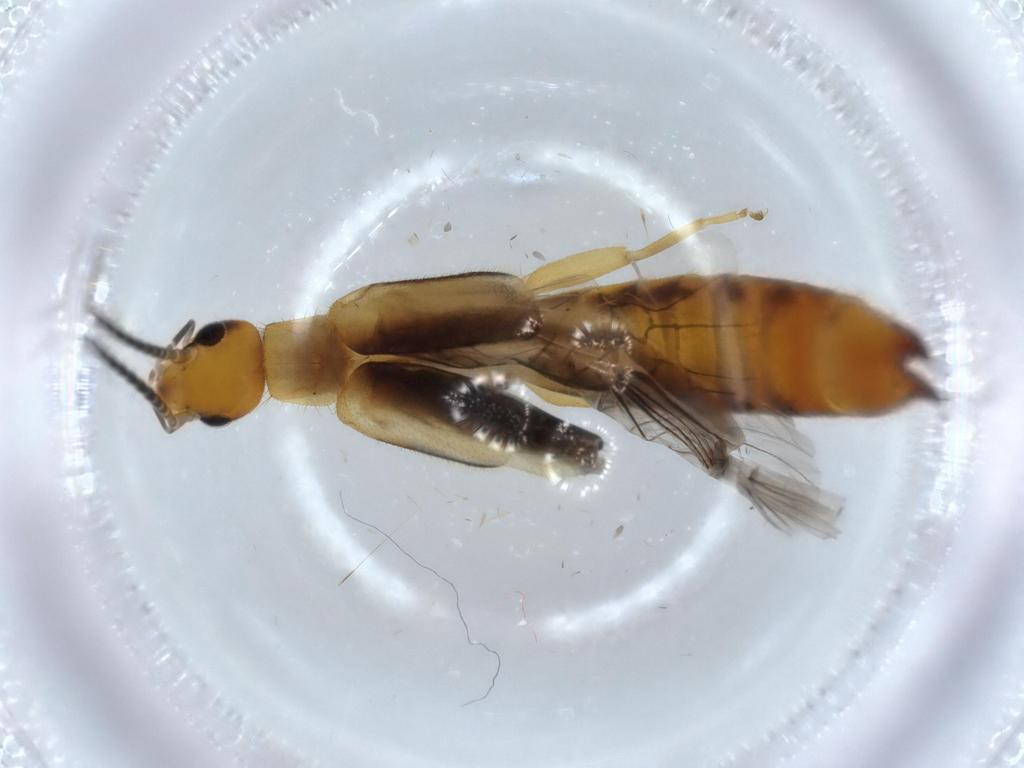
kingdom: Animalia
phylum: Arthropoda
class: Insecta
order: Dermaptera
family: Forficulidae
